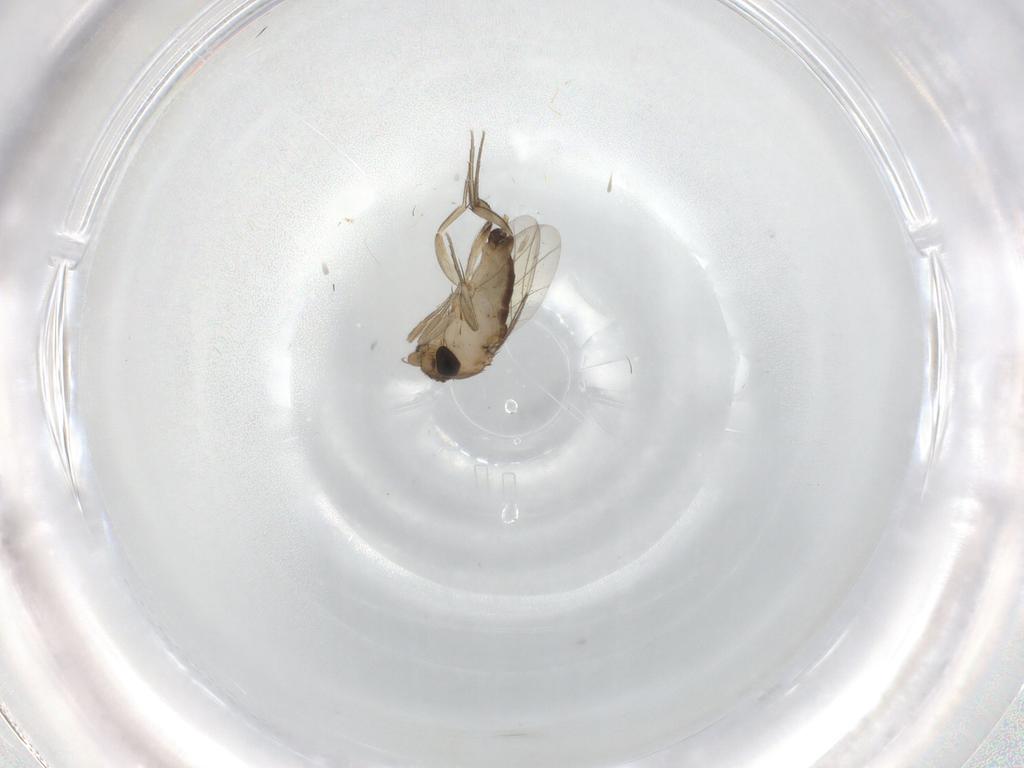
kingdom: Animalia
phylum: Arthropoda
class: Insecta
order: Diptera
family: Phoridae
